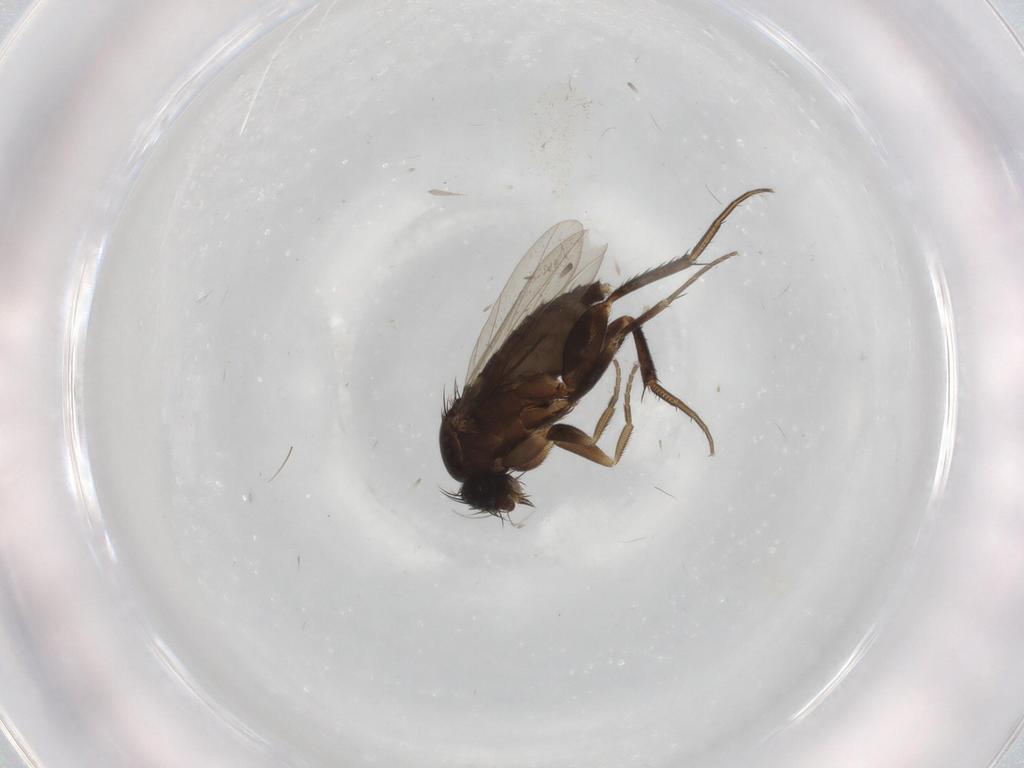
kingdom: Animalia
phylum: Arthropoda
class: Insecta
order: Diptera
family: Phoridae
